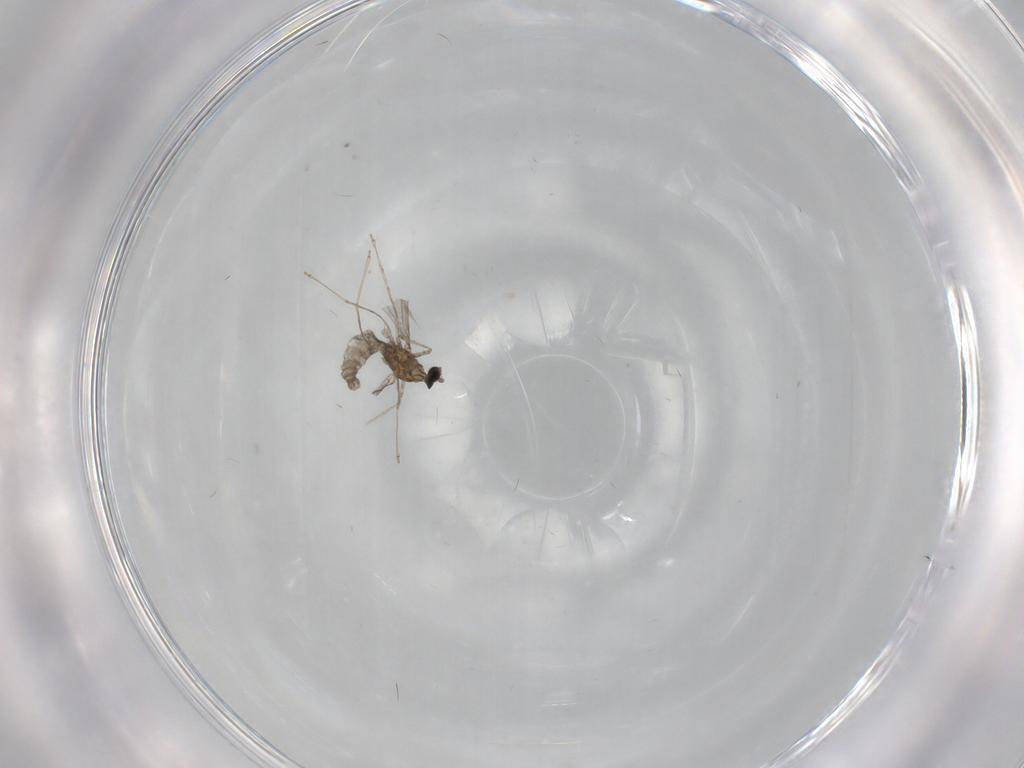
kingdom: Animalia
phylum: Arthropoda
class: Insecta
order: Diptera
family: Cecidomyiidae
